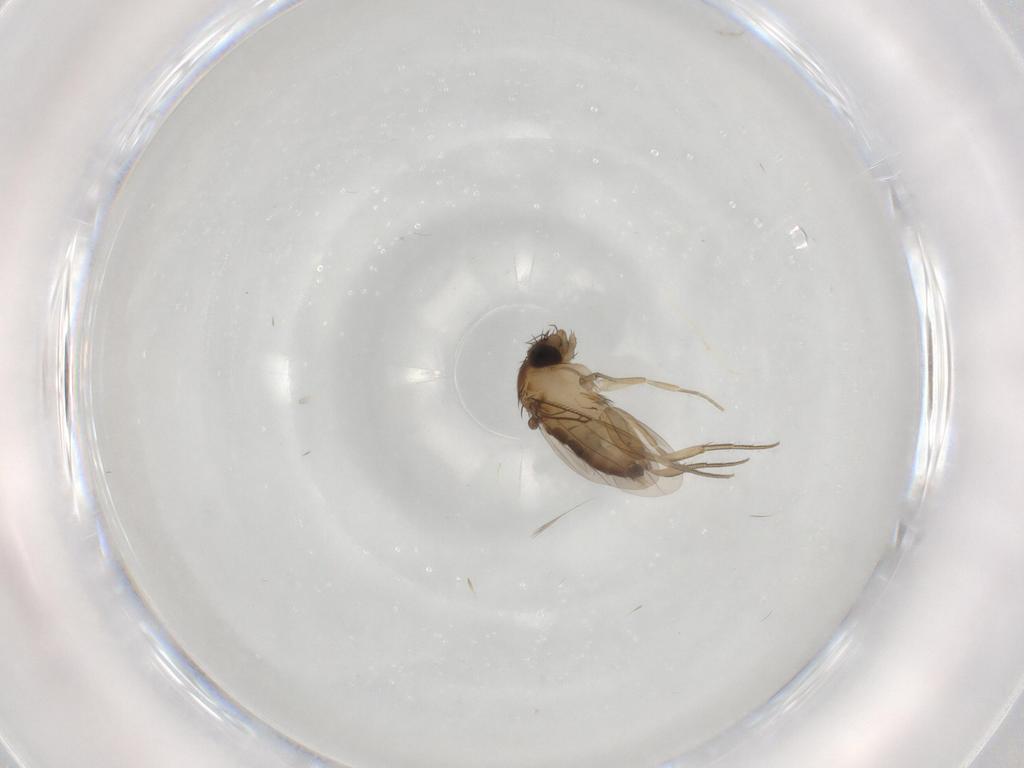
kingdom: Animalia
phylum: Arthropoda
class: Insecta
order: Diptera
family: Phoridae
